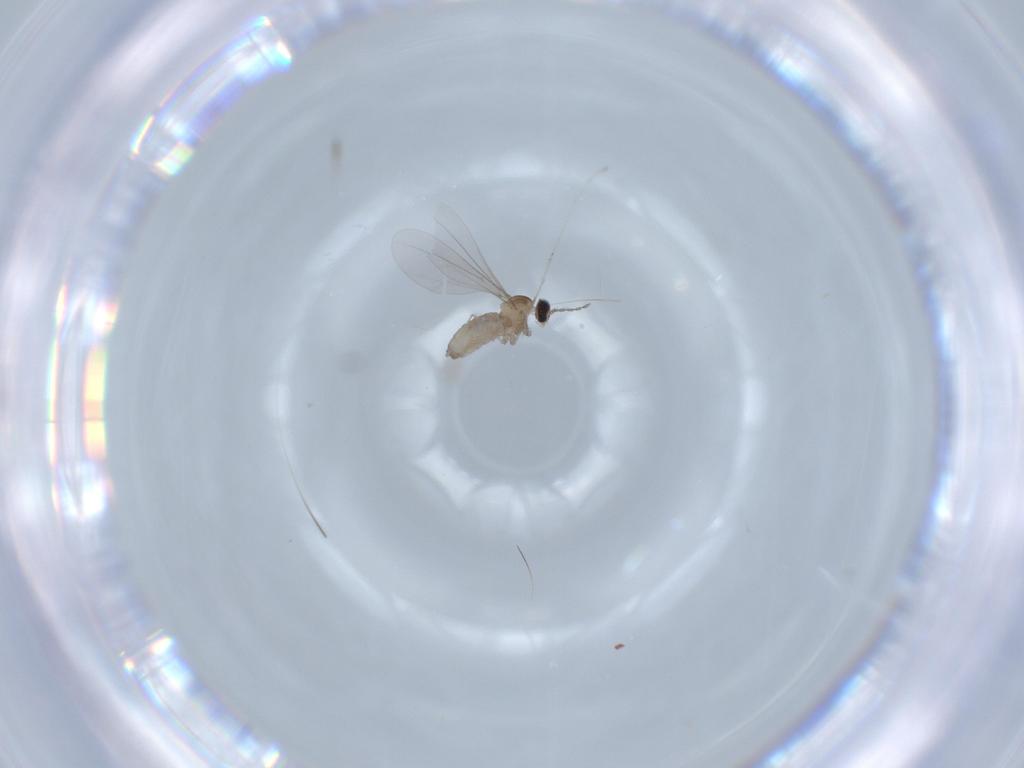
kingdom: Animalia
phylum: Arthropoda
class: Insecta
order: Diptera
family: Cecidomyiidae
